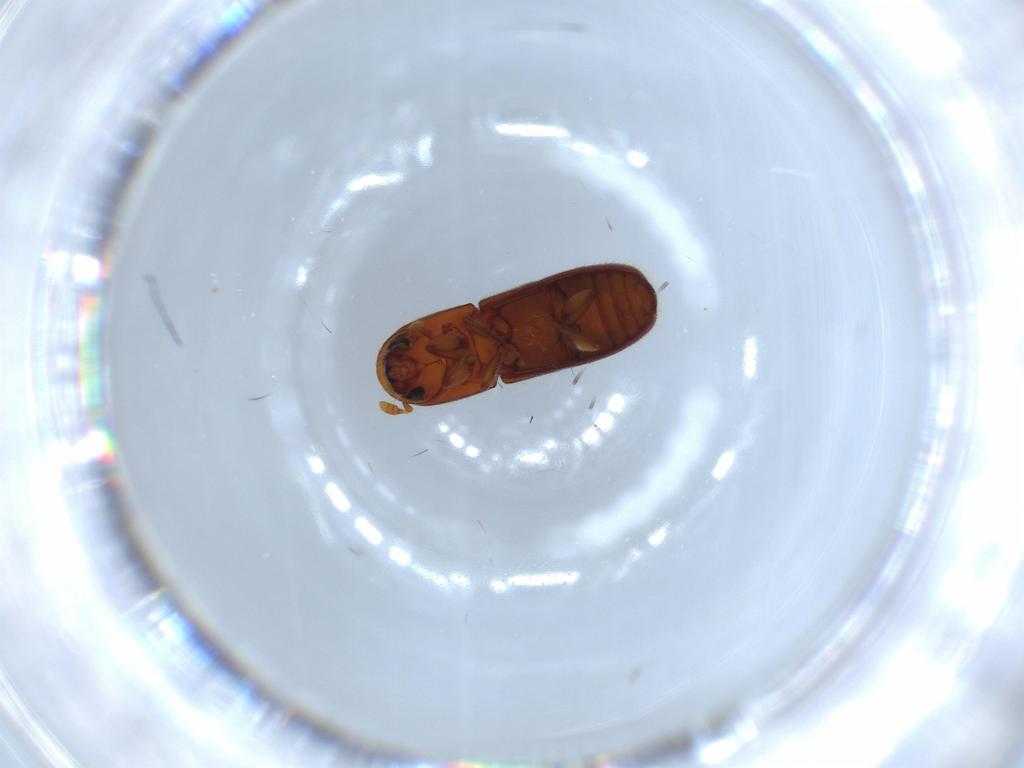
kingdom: Animalia
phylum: Arthropoda
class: Insecta
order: Coleoptera
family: Curculionidae
